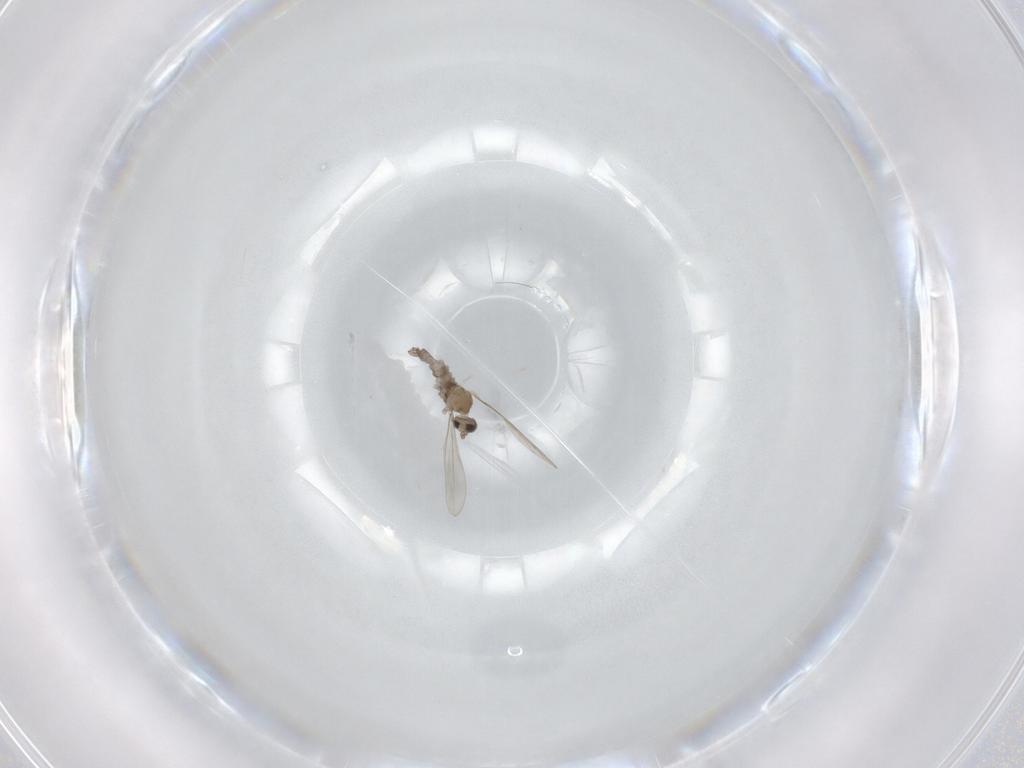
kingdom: Animalia
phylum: Arthropoda
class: Insecta
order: Diptera
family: Cecidomyiidae
